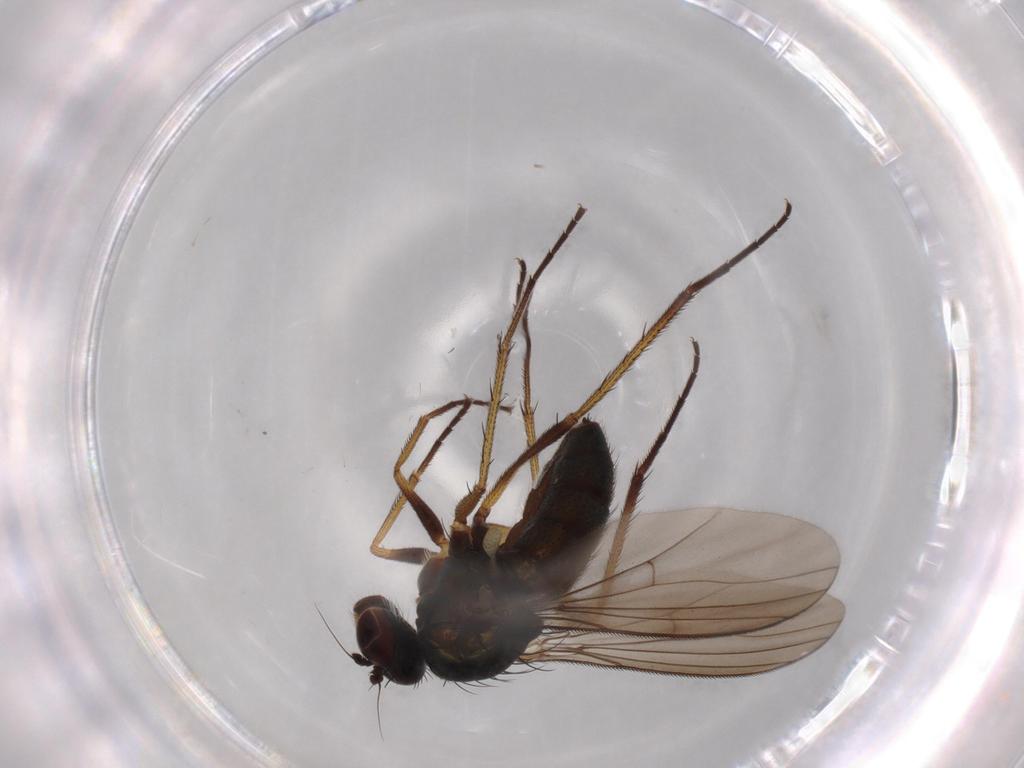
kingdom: Animalia
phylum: Arthropoda
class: Insecta
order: Diptera
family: Dolichopodidae
